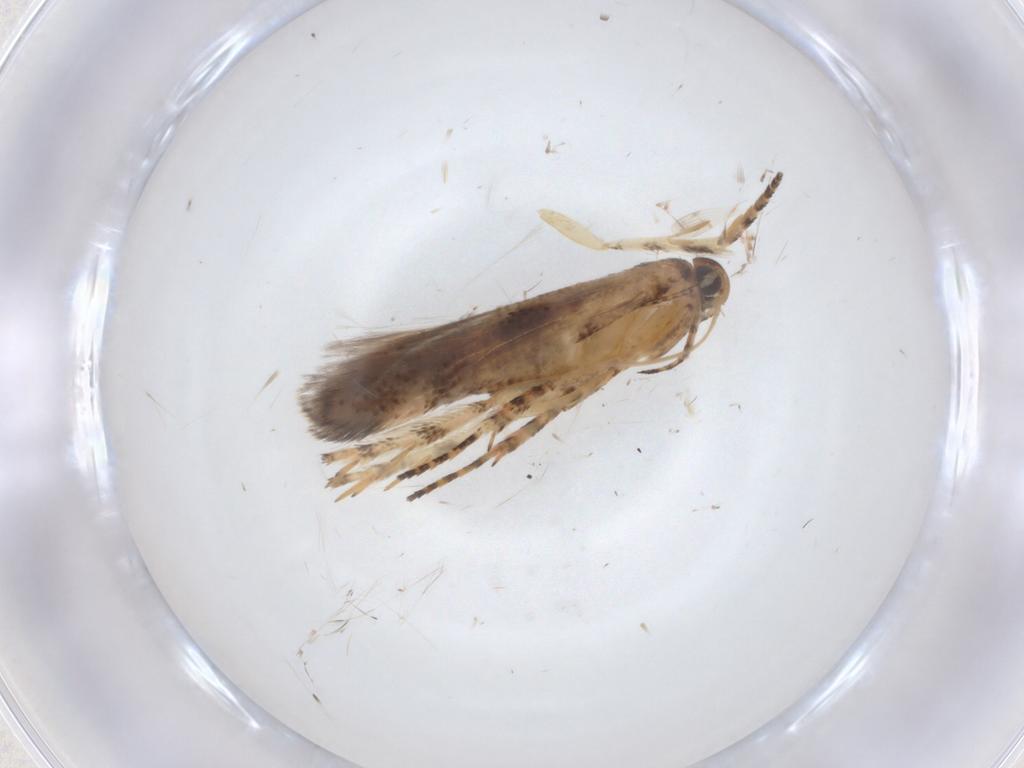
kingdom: Animalia
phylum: Arthropoda
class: Insecta
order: Lepidoptera
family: Gelechiidae
